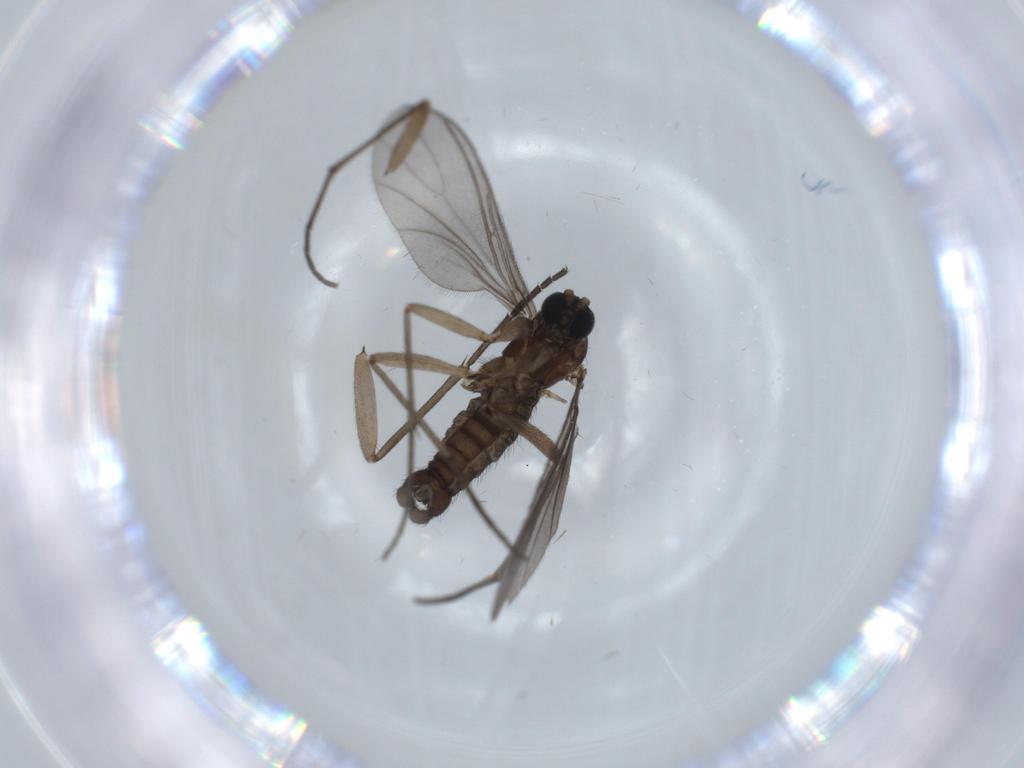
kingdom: Animalia
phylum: Arthropoda
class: Insecta
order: Diptera
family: Sciaridae
